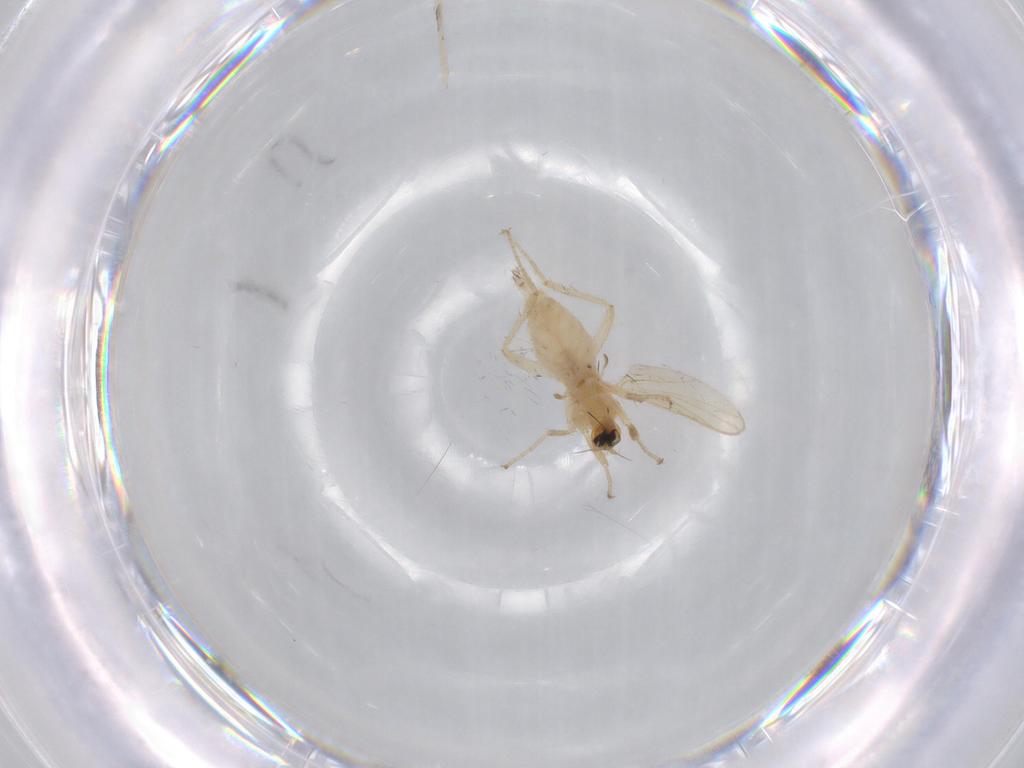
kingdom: Animalia
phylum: Arthropoda
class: Insecta
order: Diptera
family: Hybotidae
